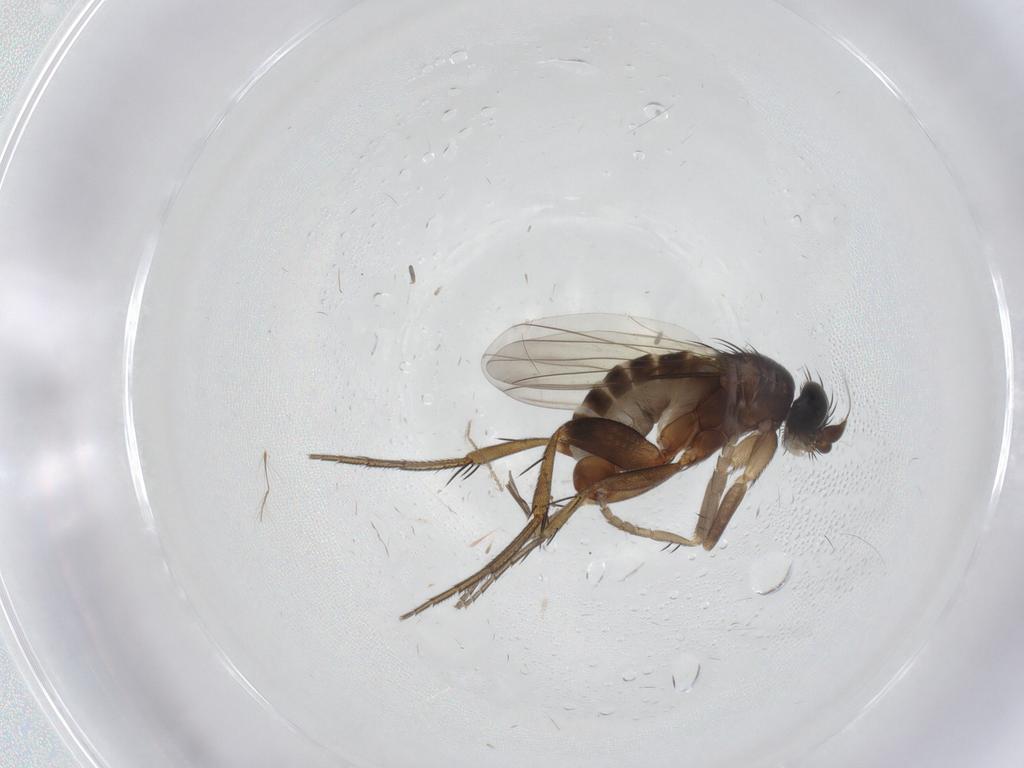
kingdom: Animalia
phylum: Arthropoda
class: Insecta
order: Diptera
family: Phoridae
